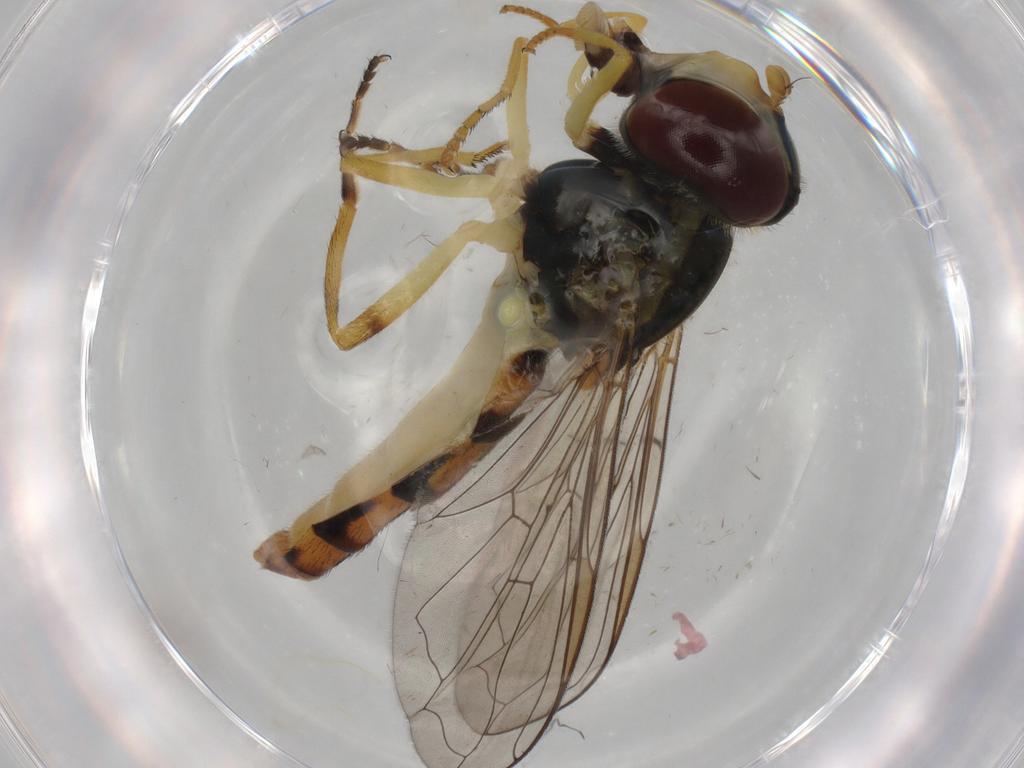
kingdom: Animalia
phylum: Arthropoda
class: Insecta
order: Diptera
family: Syrphidae
